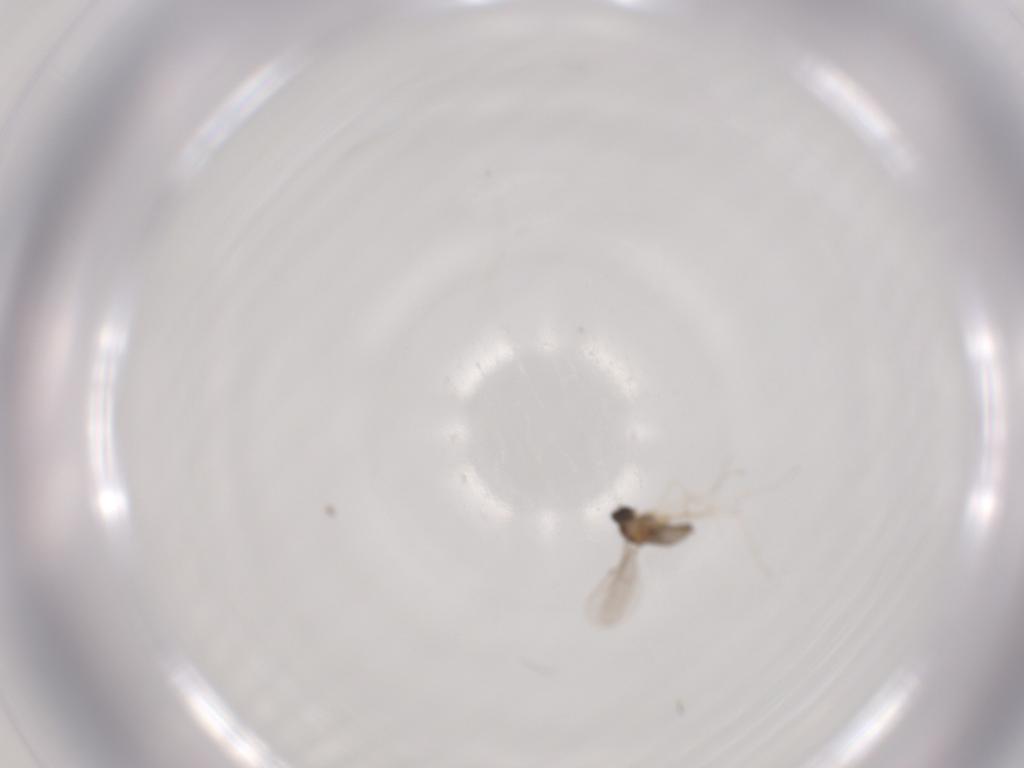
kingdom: Animalia
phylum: Arthropoda
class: Insecta
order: Diptera
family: Cecidomyiidae
